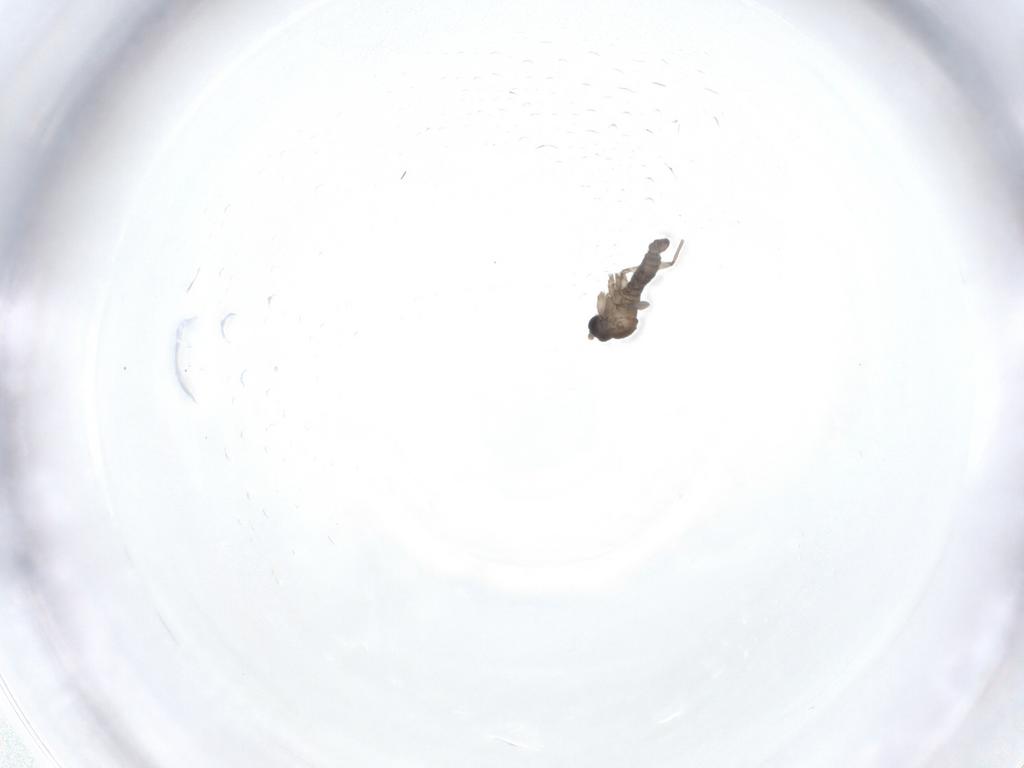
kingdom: Animalia
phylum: Arthropoda
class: Insecta
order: Diptera
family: Sciaridae
